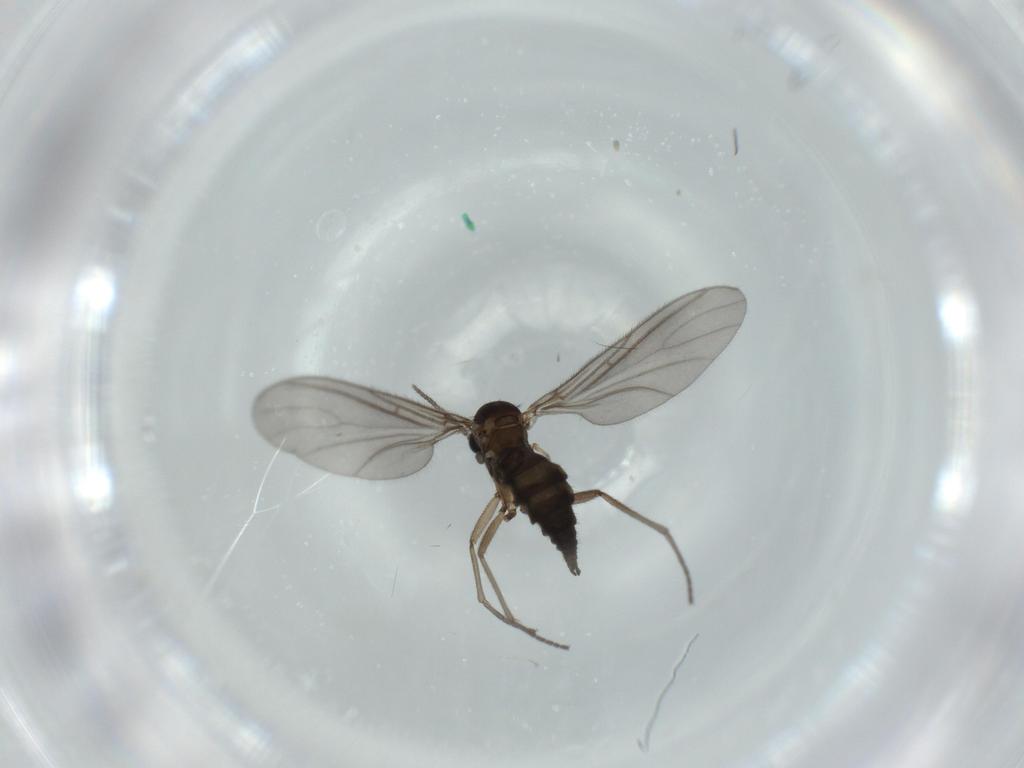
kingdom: Animalia
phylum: Arthropoda
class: Insecta
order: Diptera
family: Sciaridae
